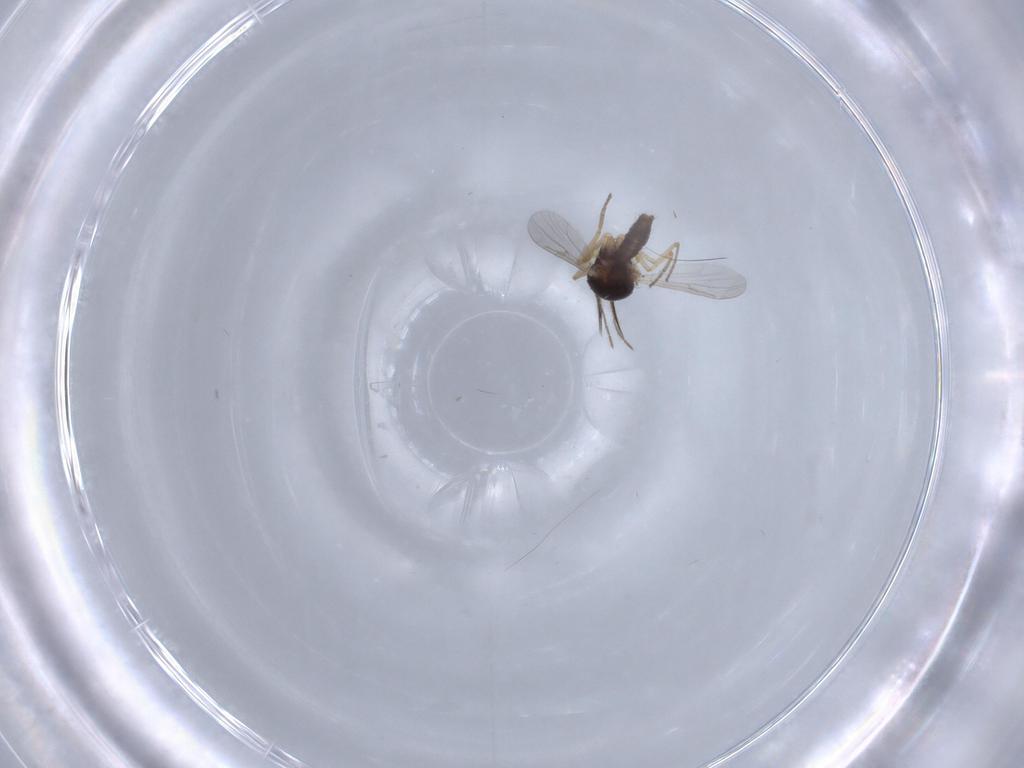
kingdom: Animalia
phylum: Arthropoda
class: Insecta
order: Diptera
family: Ceratopogonidae
